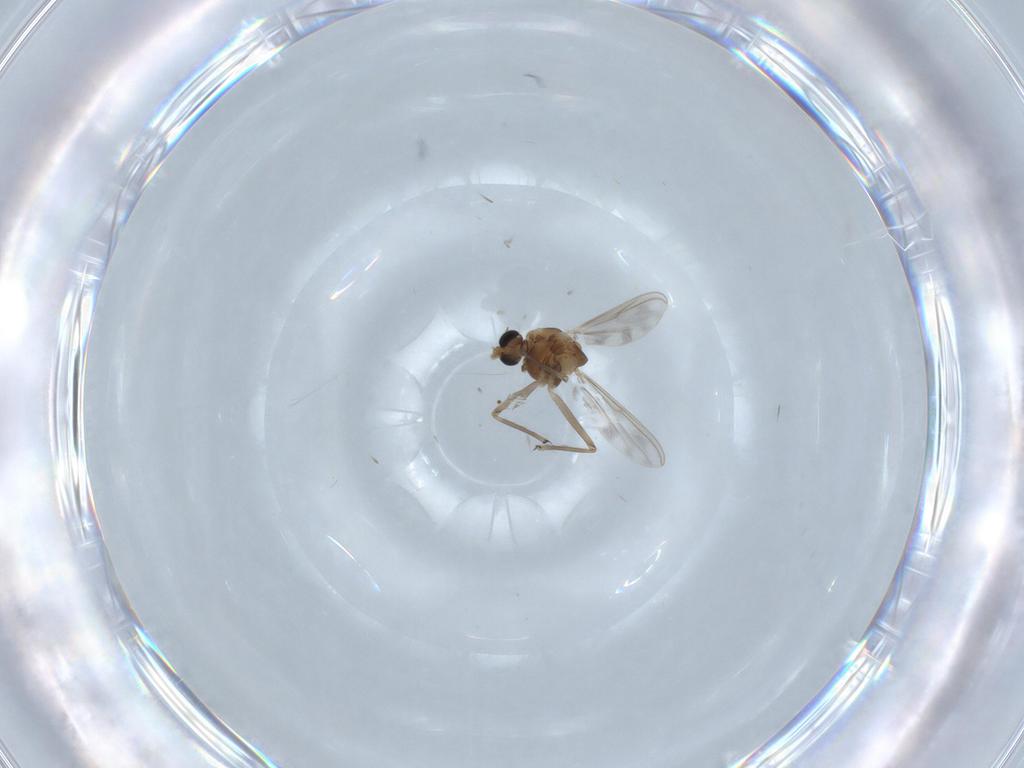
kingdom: Animalia
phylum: Arthropoda
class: Insecta
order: Diptera
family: Chironomidae
